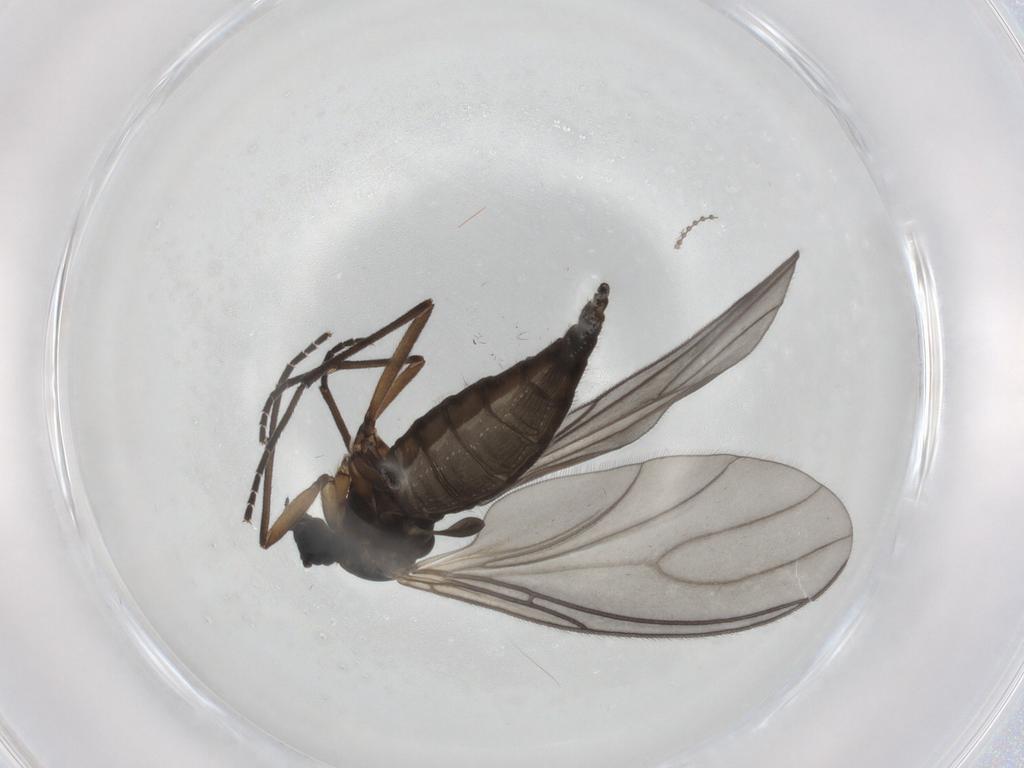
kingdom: Animalia
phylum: Arthropoda
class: Insecta
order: Diptera
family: Sciaridae
